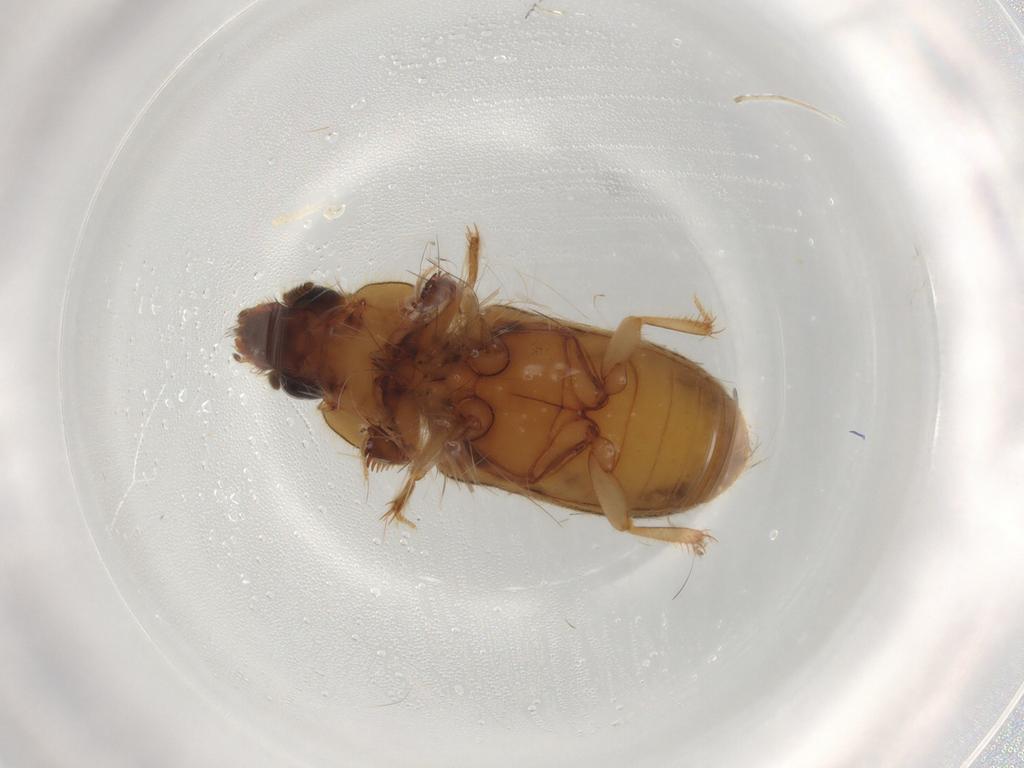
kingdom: Animalia
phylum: Arthropoda
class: Insecta
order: Coleoptera
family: Heteroceridae
